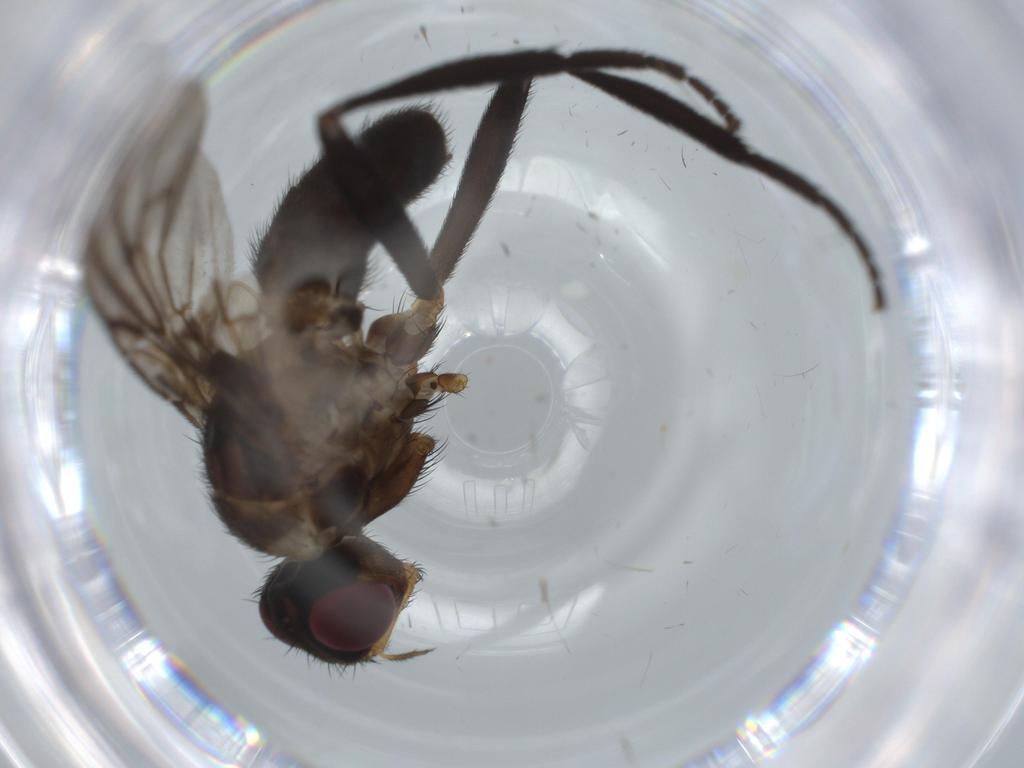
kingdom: Animalia
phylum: Arthropoda
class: Insecta
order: Diptera
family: Calliphoridae
